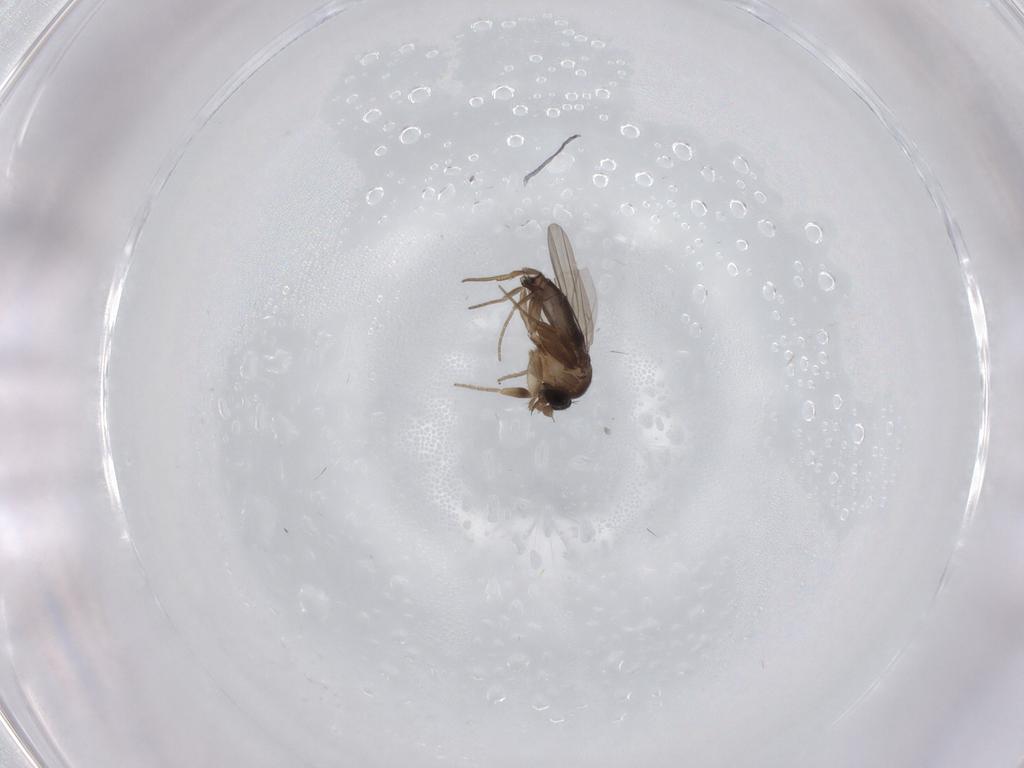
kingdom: Animalia
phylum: Arthropoda
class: Insecta
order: Diptera
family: Phoridae
